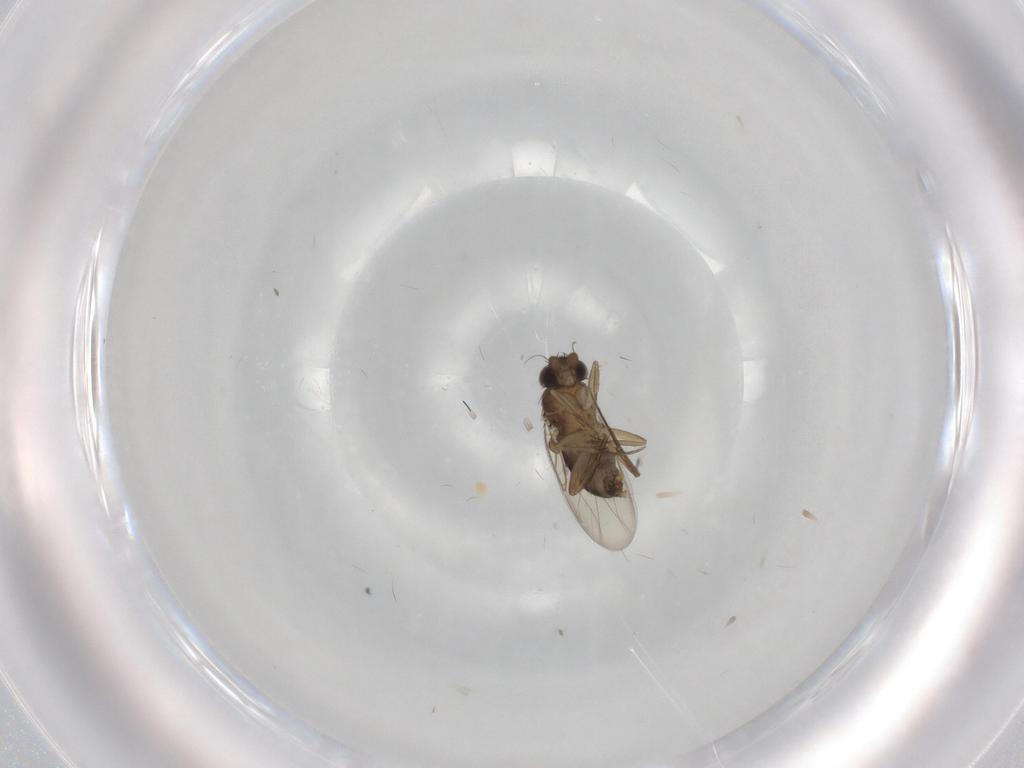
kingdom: Animalia
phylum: Arthropoda
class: Insecta
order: Diptera
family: Phoridae
